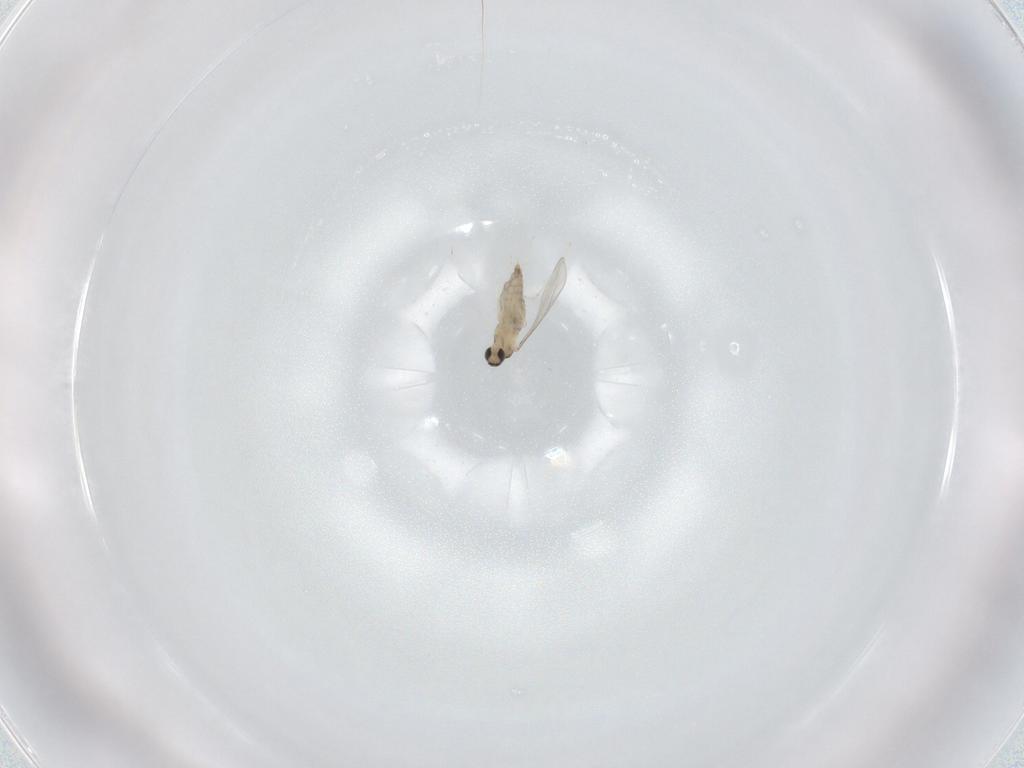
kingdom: Animalia
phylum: Arthropoda
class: Insecta
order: Diptera
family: Cecidomyiidae
